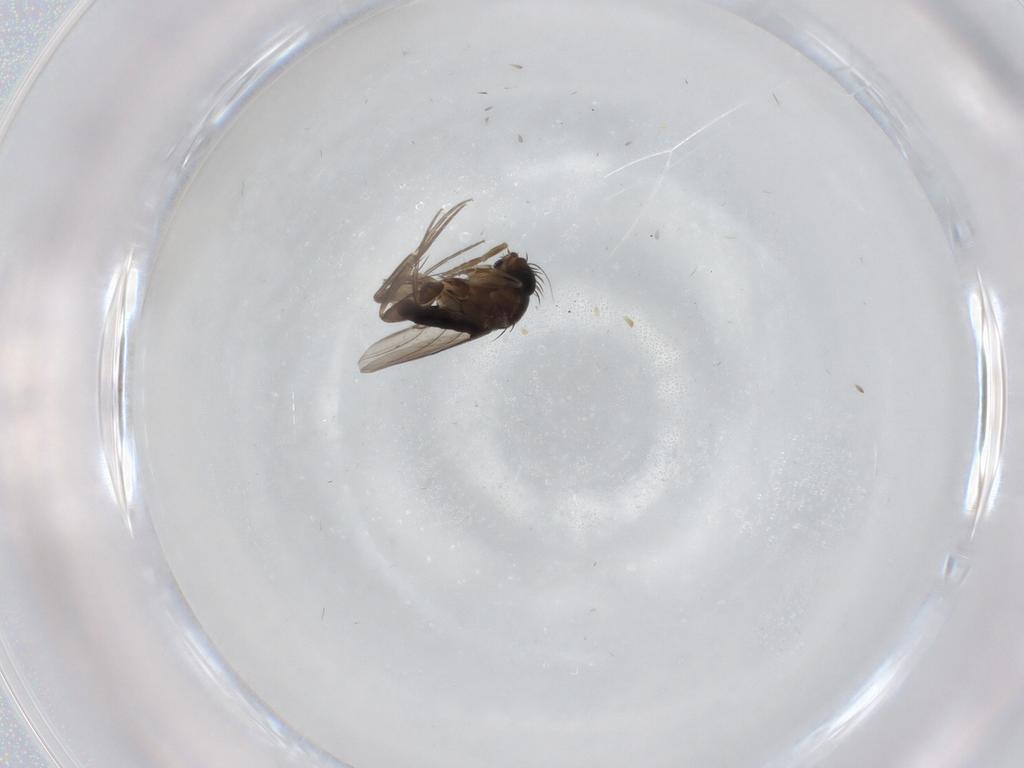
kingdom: Animalia
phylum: Arthropoda
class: Insecta
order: Diptera
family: Phoridae
